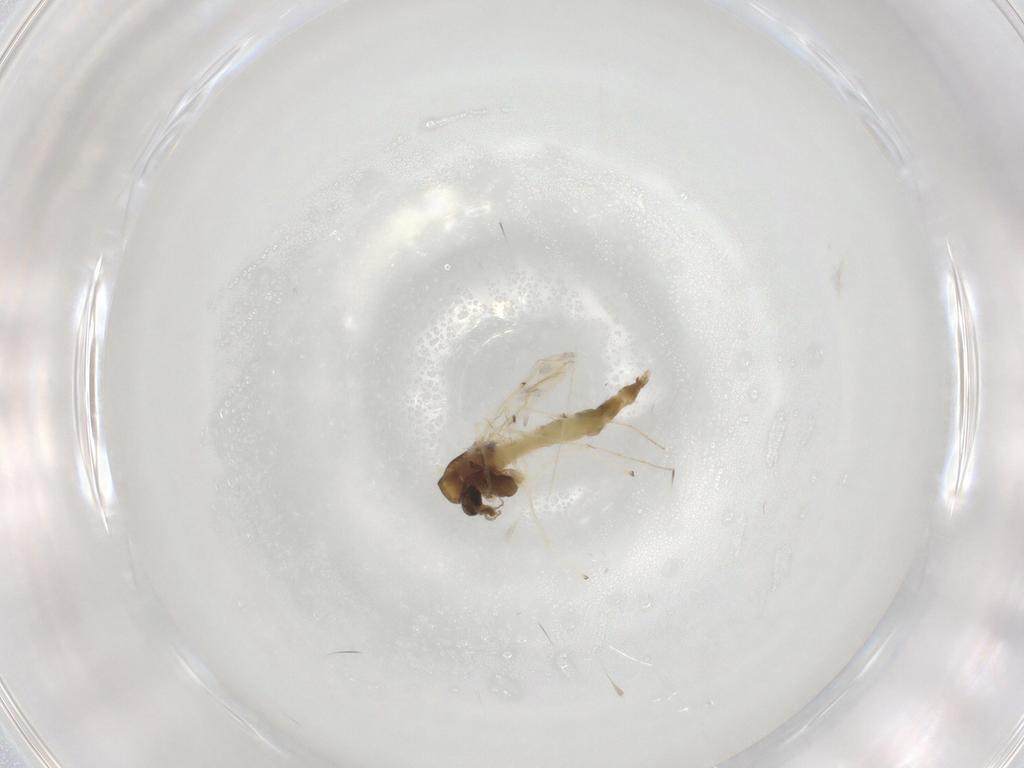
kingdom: Animalia
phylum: Arthropoda
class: Insecta
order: Diptera
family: Chironomidae
